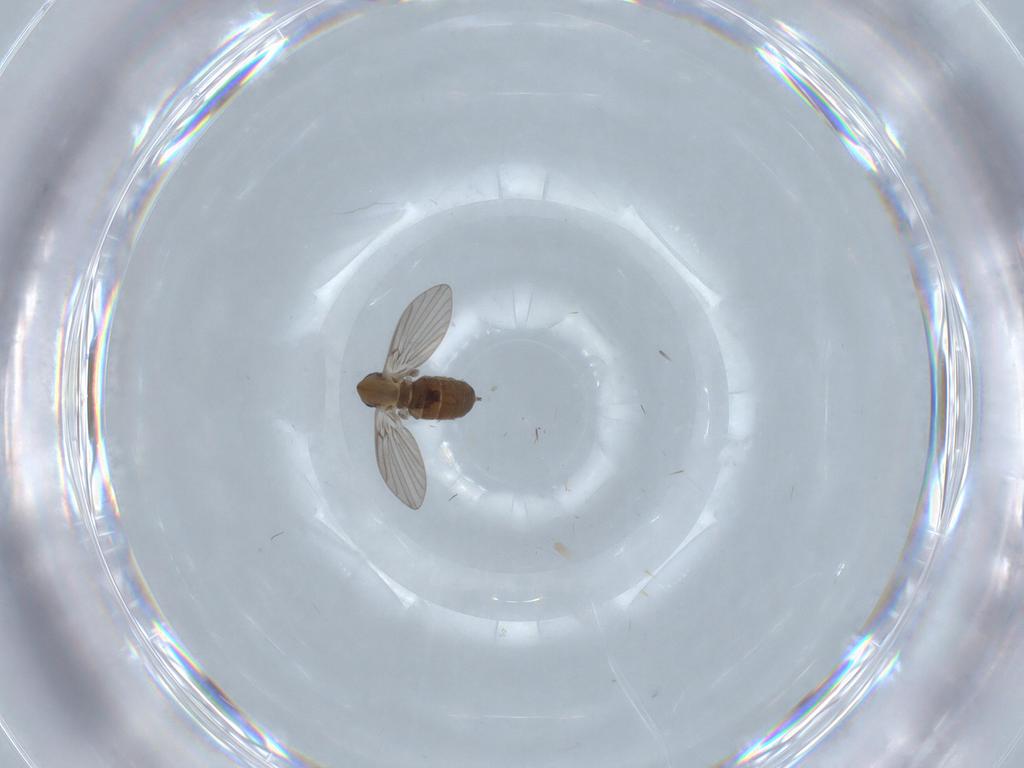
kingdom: Animalia
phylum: Arthropoda
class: Insecta
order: Diptera
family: Psychodidae
